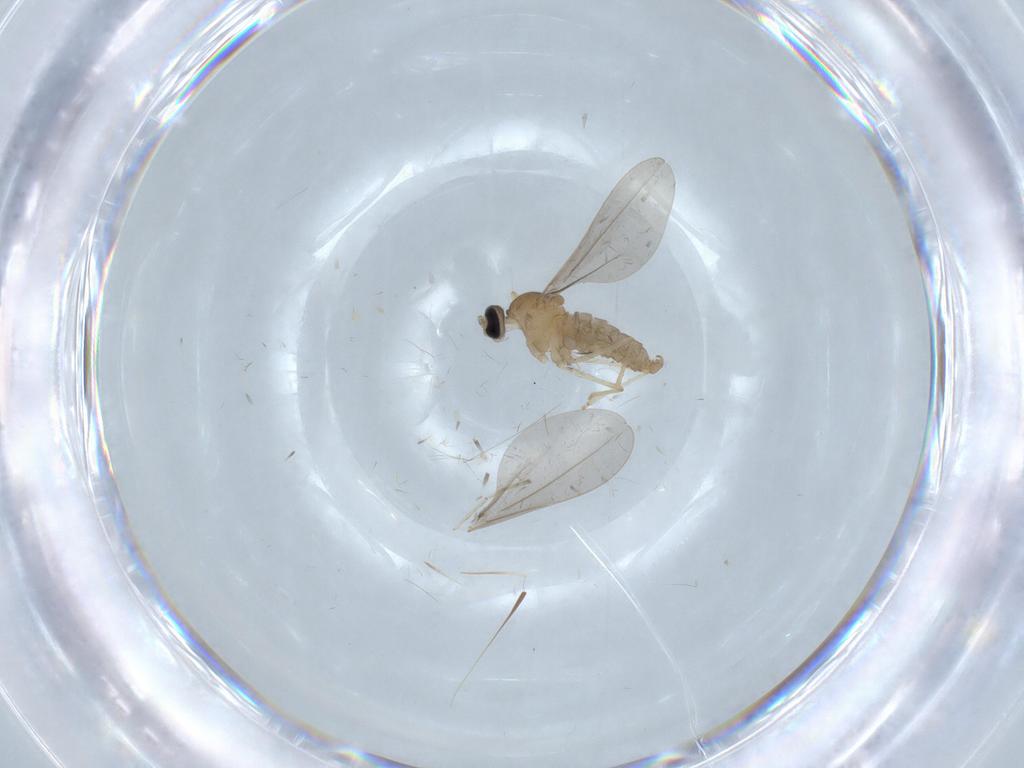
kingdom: Animalia
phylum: Arthropoda
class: Insecta
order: Diptera
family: Cecidomyiidae
